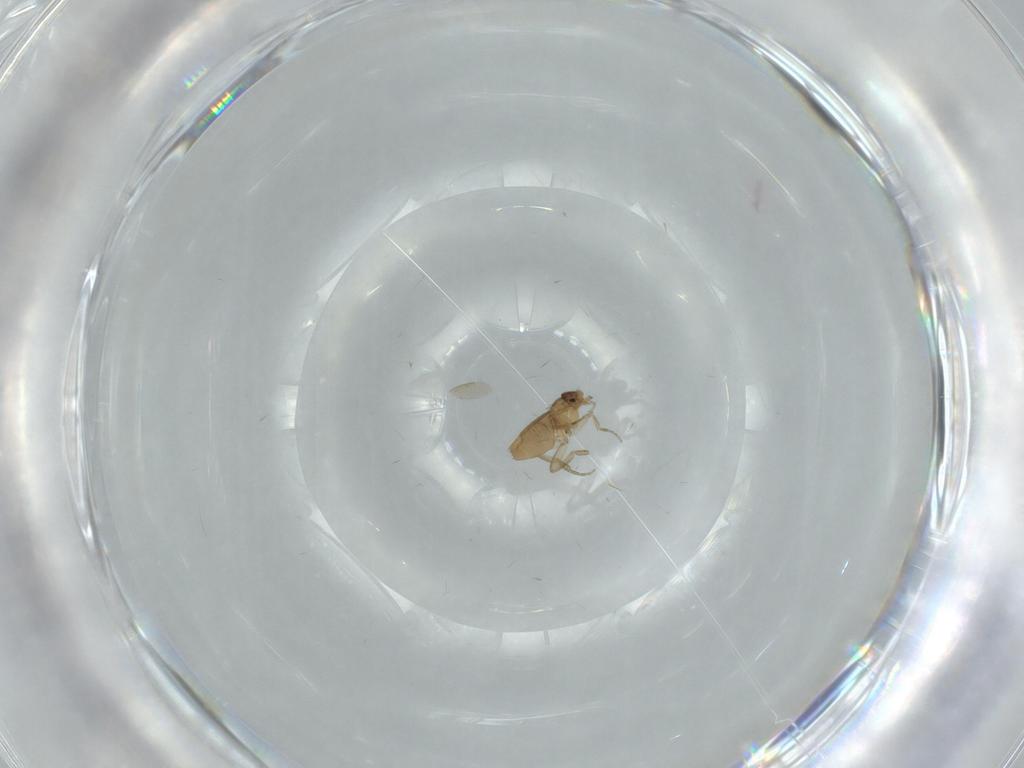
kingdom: Animalia
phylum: Arthropoda
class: Insecta
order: Diptera
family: Phoridae
